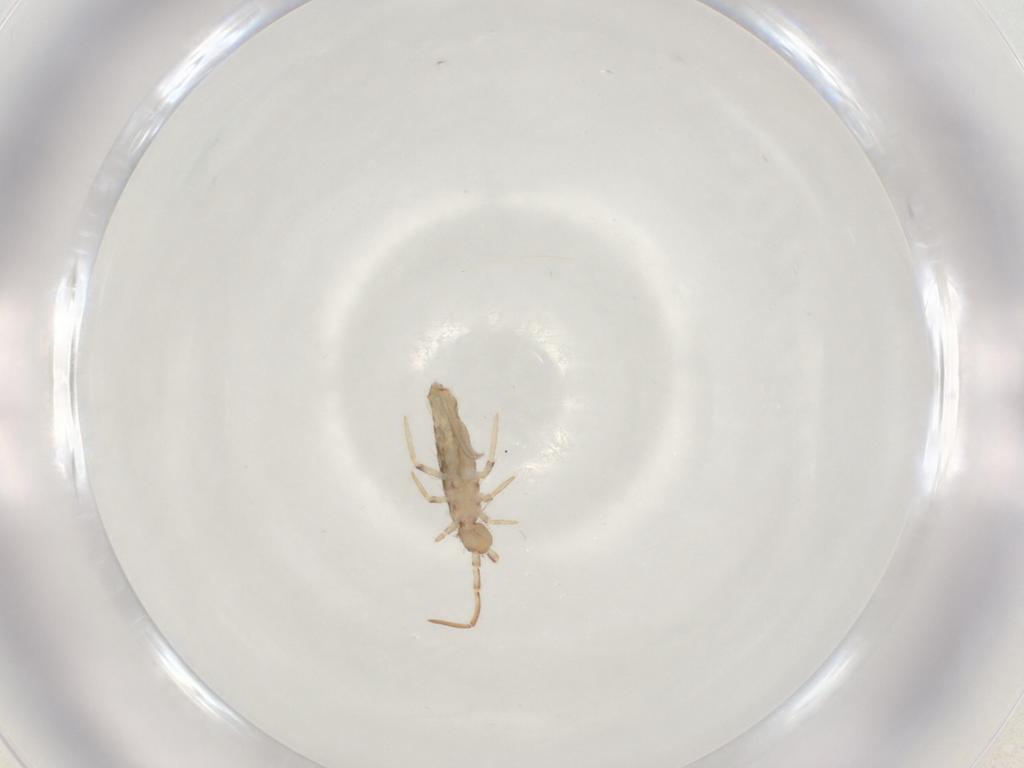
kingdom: Animalia
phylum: Arthropoda
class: Collembola
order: Entomobryomorpha
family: Entomobryidae
